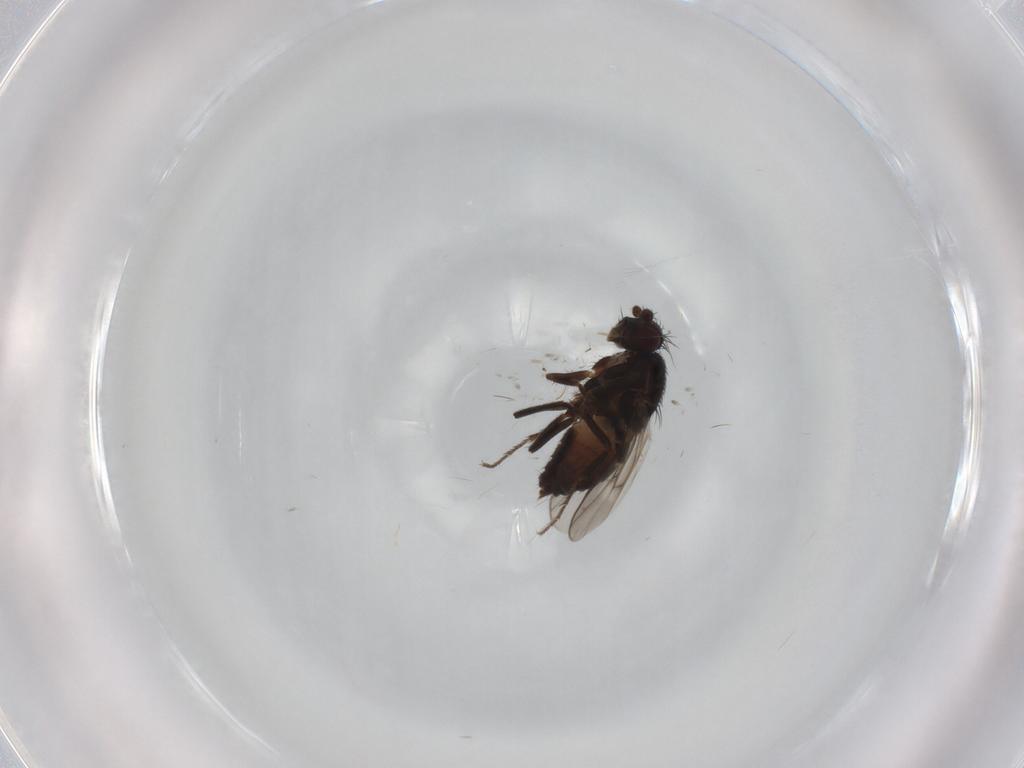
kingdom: Animalia
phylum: Arthropoda
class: Insecta
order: Diptera
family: Sphaeroceridae
